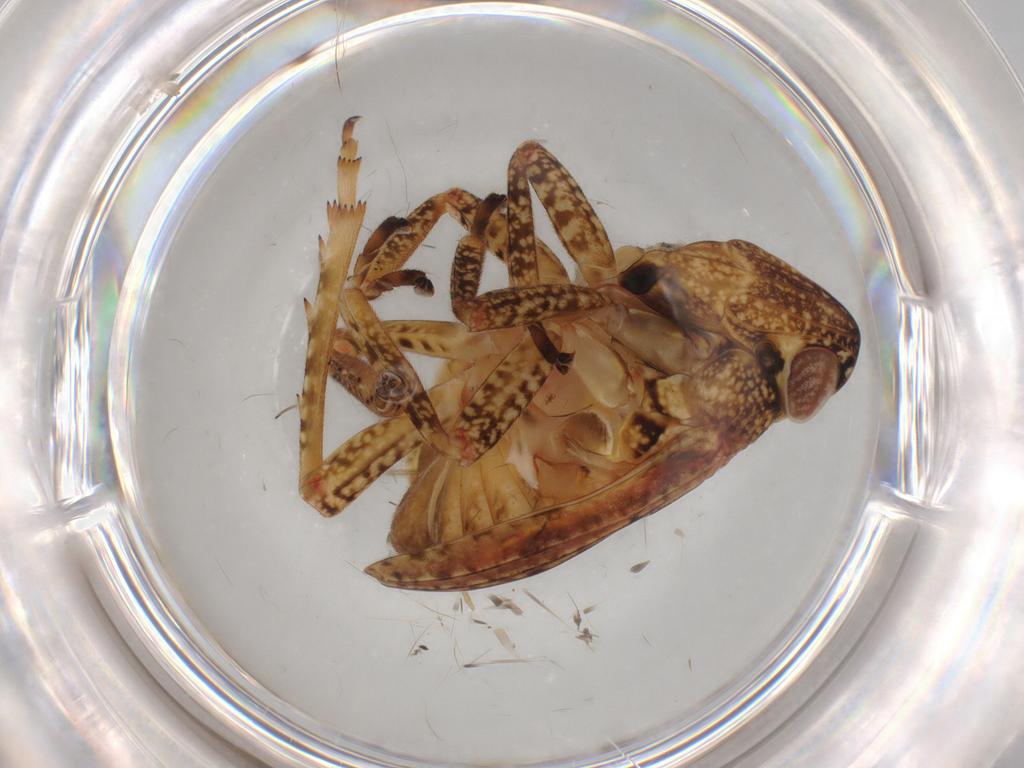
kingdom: Animalia
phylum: Arthropoda
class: Insecta
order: Hemiptera
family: Tropiduchidae
